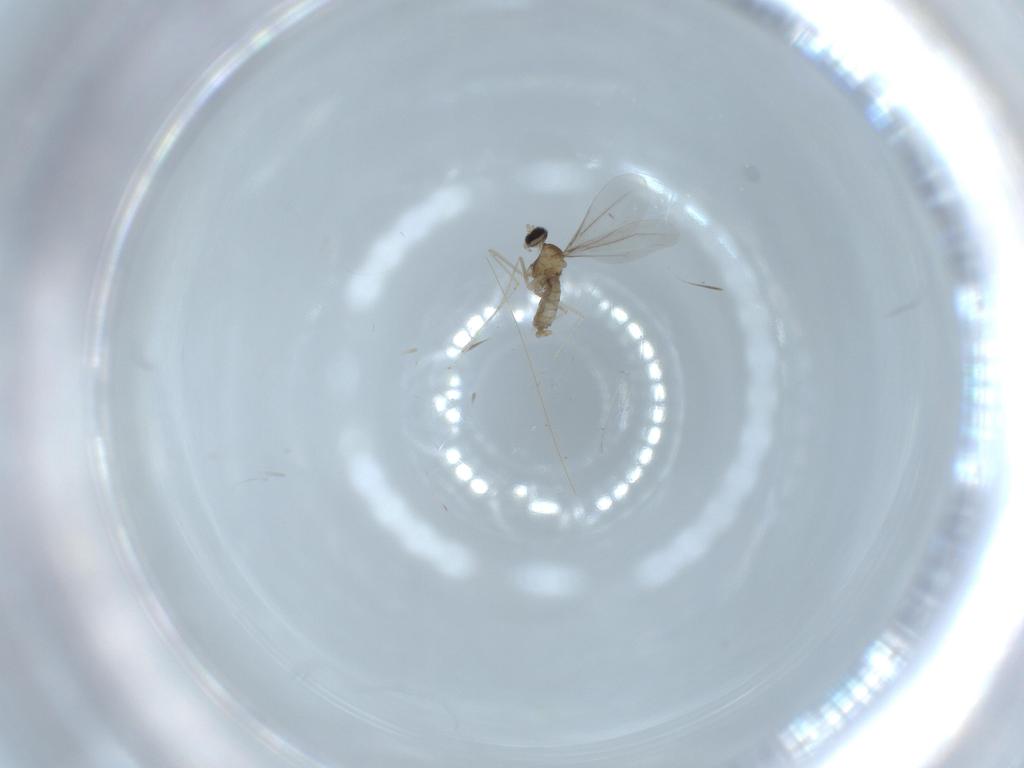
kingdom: Animalia
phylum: Arthropoda
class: Insecta
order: Diptera
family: Cecidomyiidae
